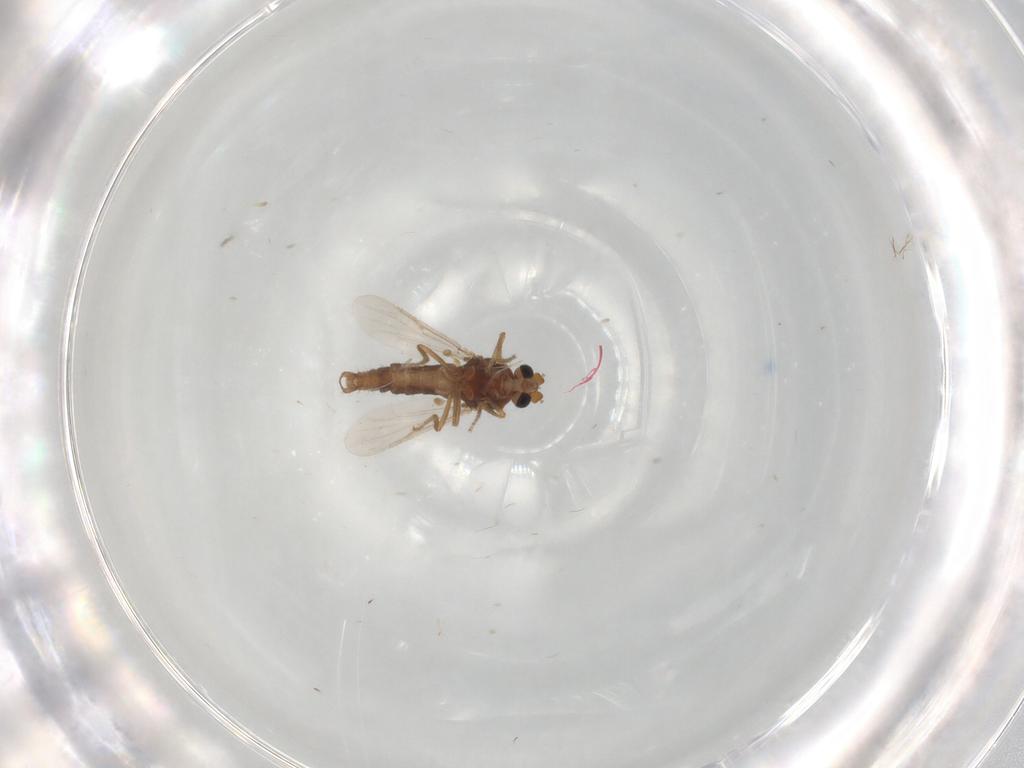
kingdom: Animalia
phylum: Arthropoda
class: Insecta
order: Diptera
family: Ceratopogonidae
